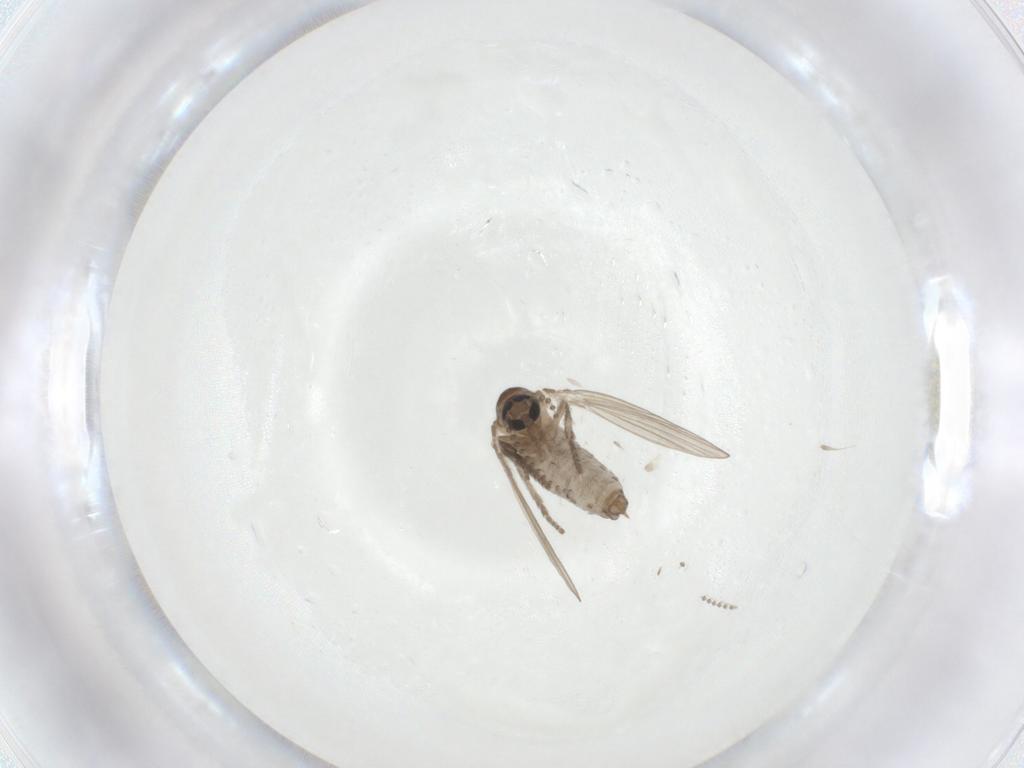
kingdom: Animalia
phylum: Arthropoda
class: Insecta
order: Diptera
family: Psychodidae
